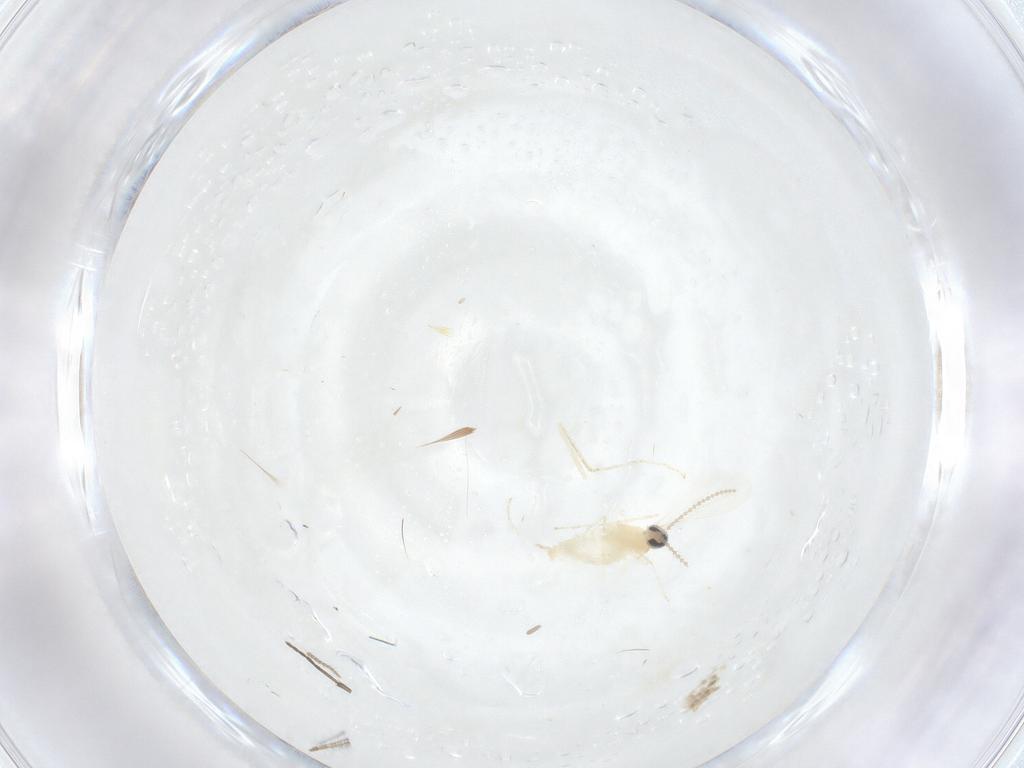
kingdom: Animalia
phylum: Arthropoda
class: Insecta
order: Diptera
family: Cecidomyiidae
